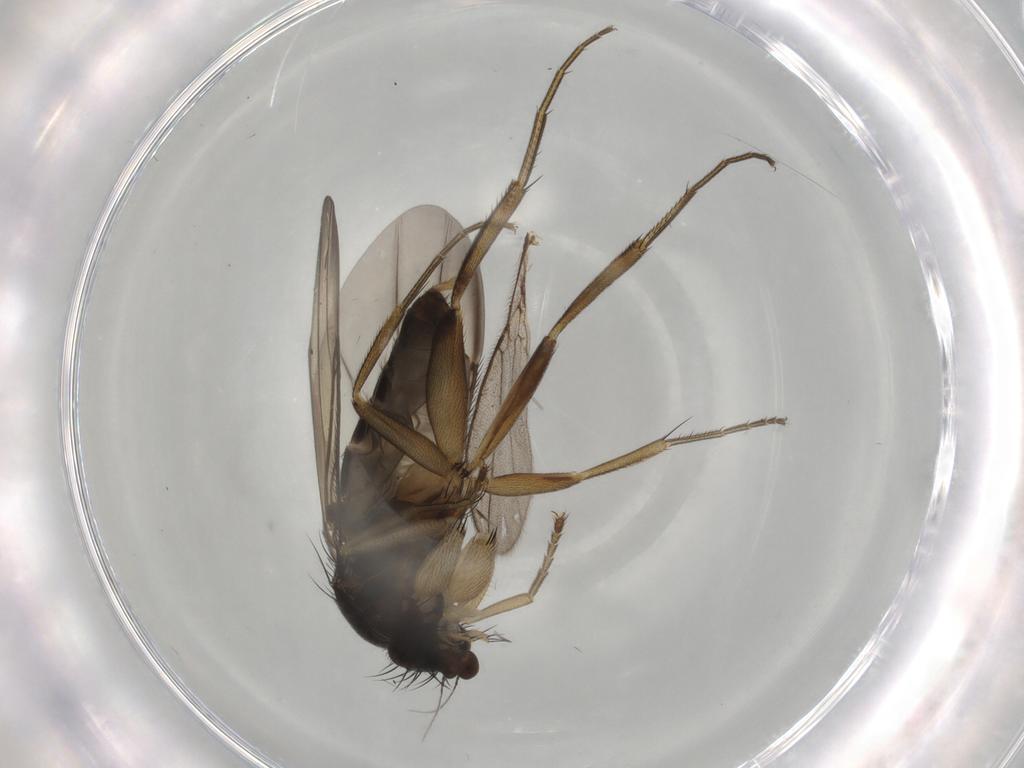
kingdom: Animalia
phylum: Arthropoda
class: Insecta
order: Diptera
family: Chironomidae
